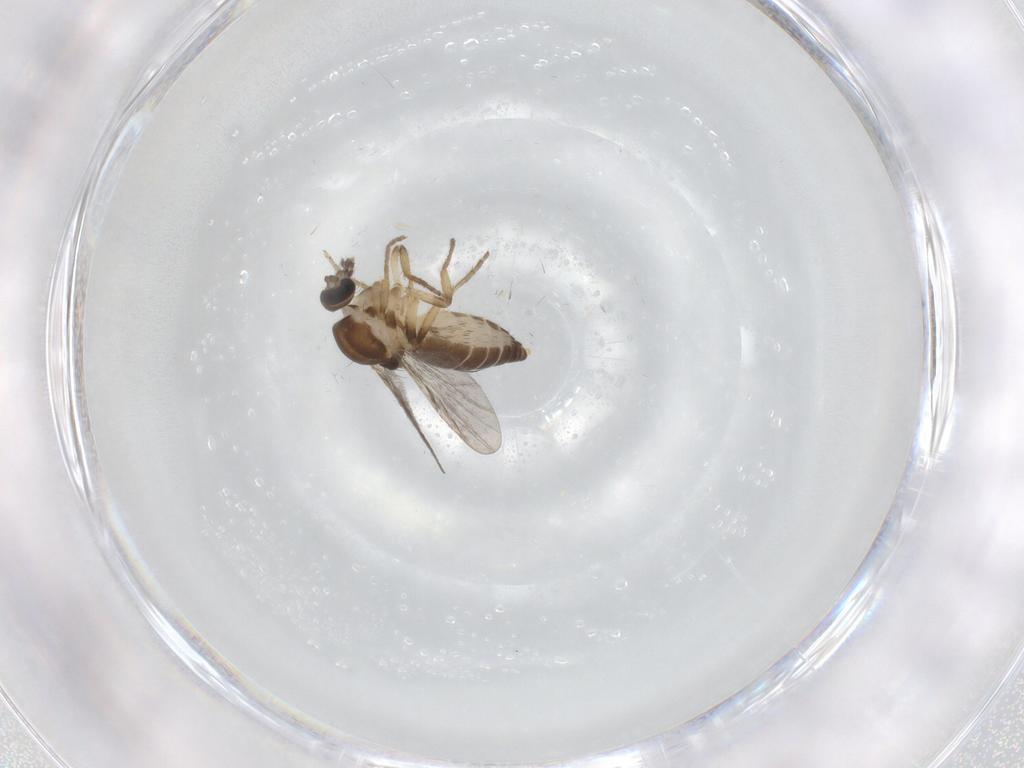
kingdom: Animalia
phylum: Arthropoda
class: Insecta
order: Diptera
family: Ceratopogonidae
